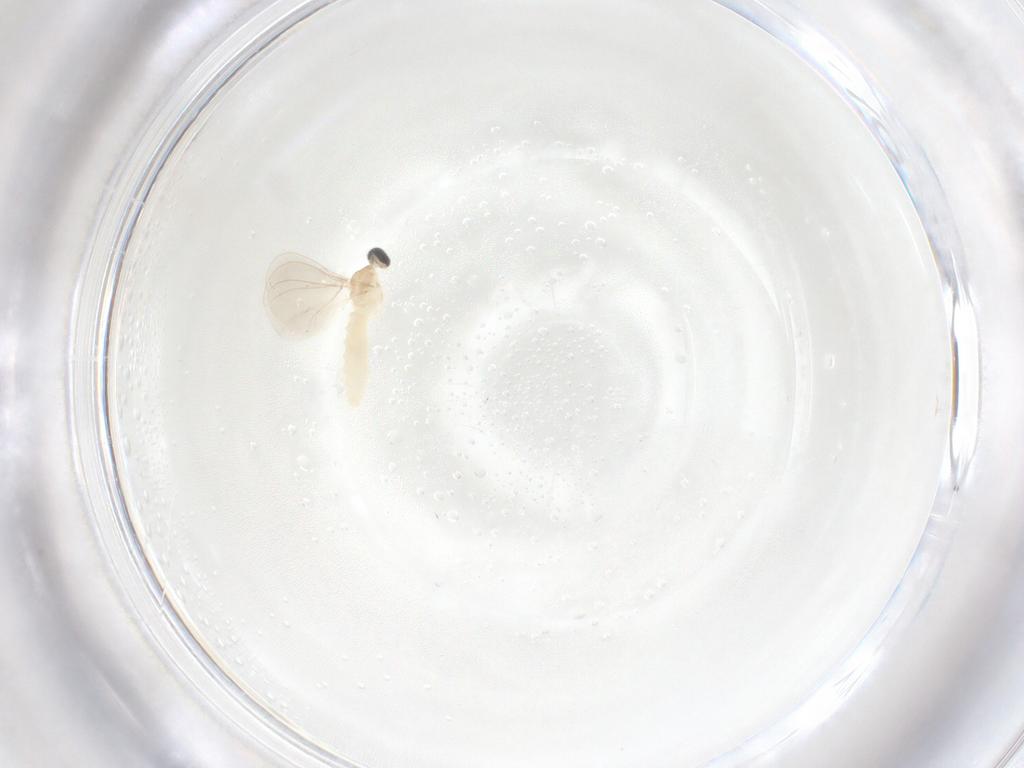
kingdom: Animalia
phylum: Arthropoda
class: Insecta
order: Diptera
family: Cecidomyiidae
